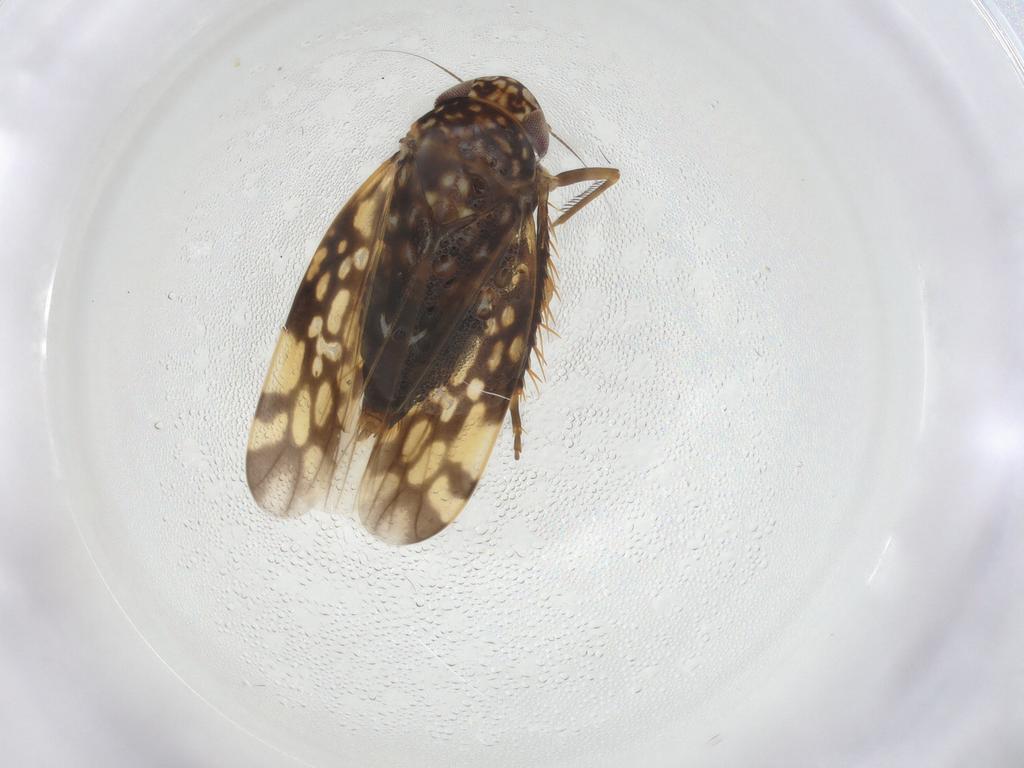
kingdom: Animalia
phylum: Arthropoda
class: Insecta
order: Hemiptera
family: Cicadellidae
